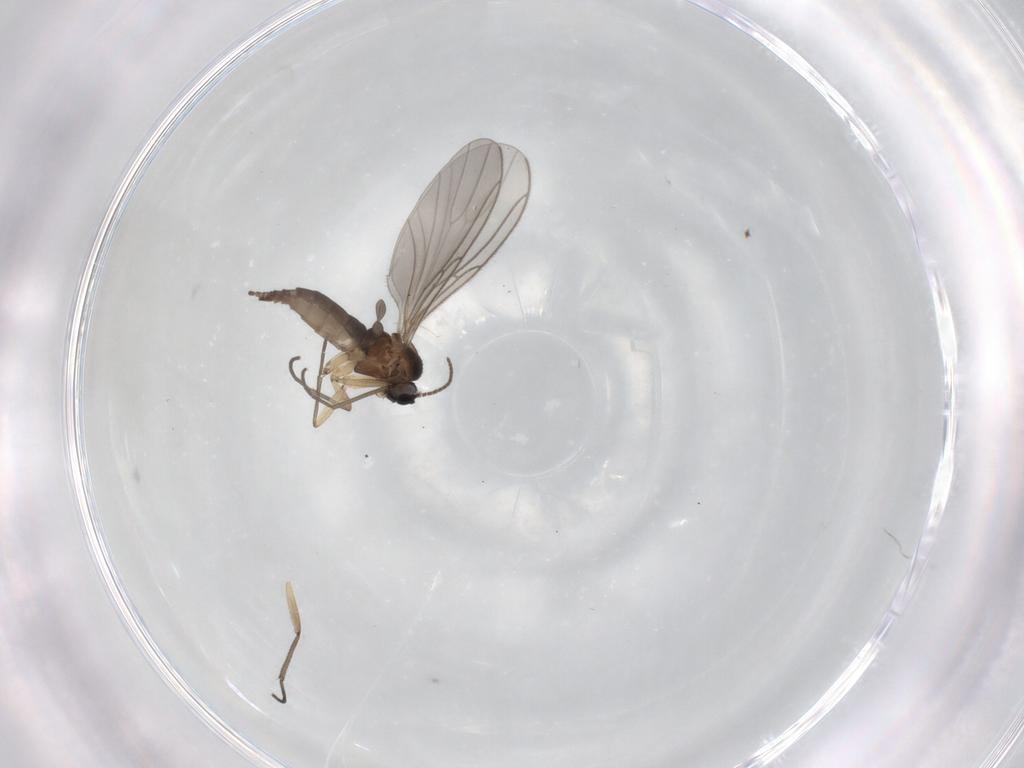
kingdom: Animalia
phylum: Arthropoda
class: Insecta
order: Diptera
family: Sciaridae
